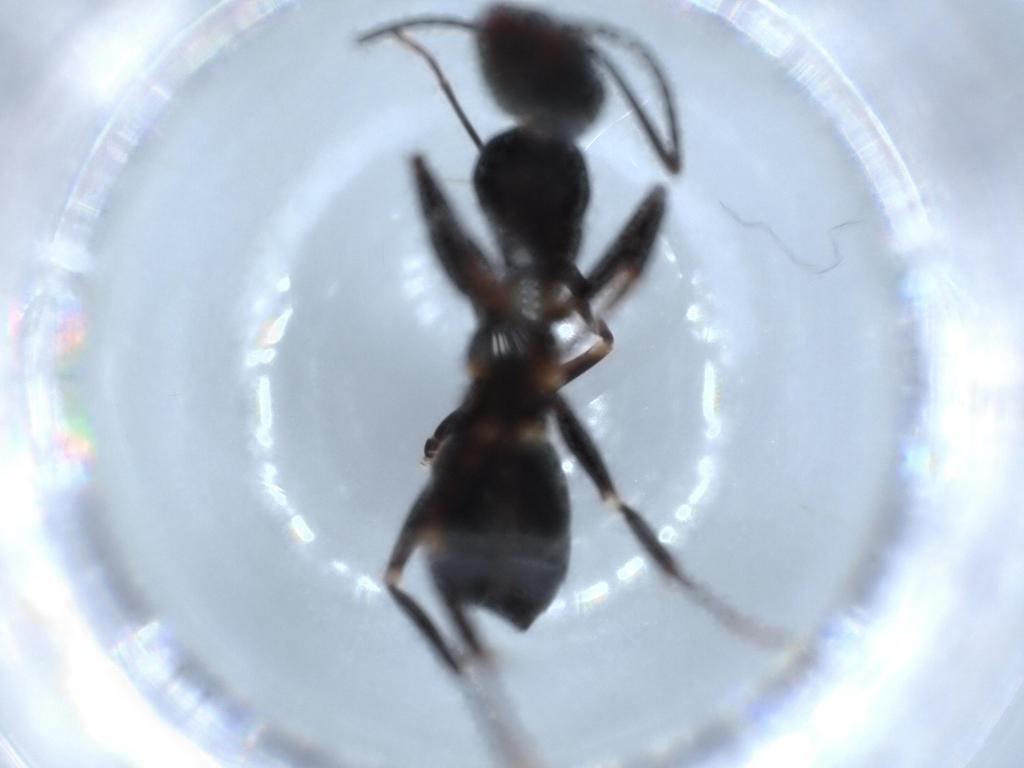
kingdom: Animalia
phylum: Arthropoda
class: Insecta
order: Hymenoptera
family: Formicidae
